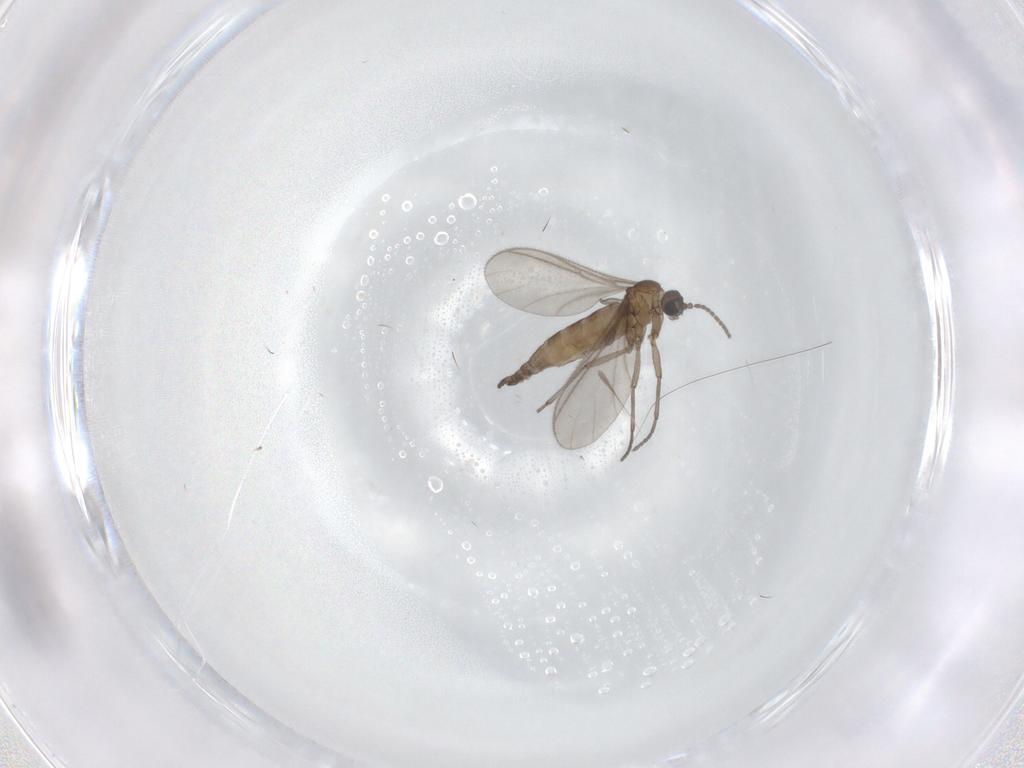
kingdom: Animalia
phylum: Arthropoda
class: Insecta
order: Diptera
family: Sciaridae
